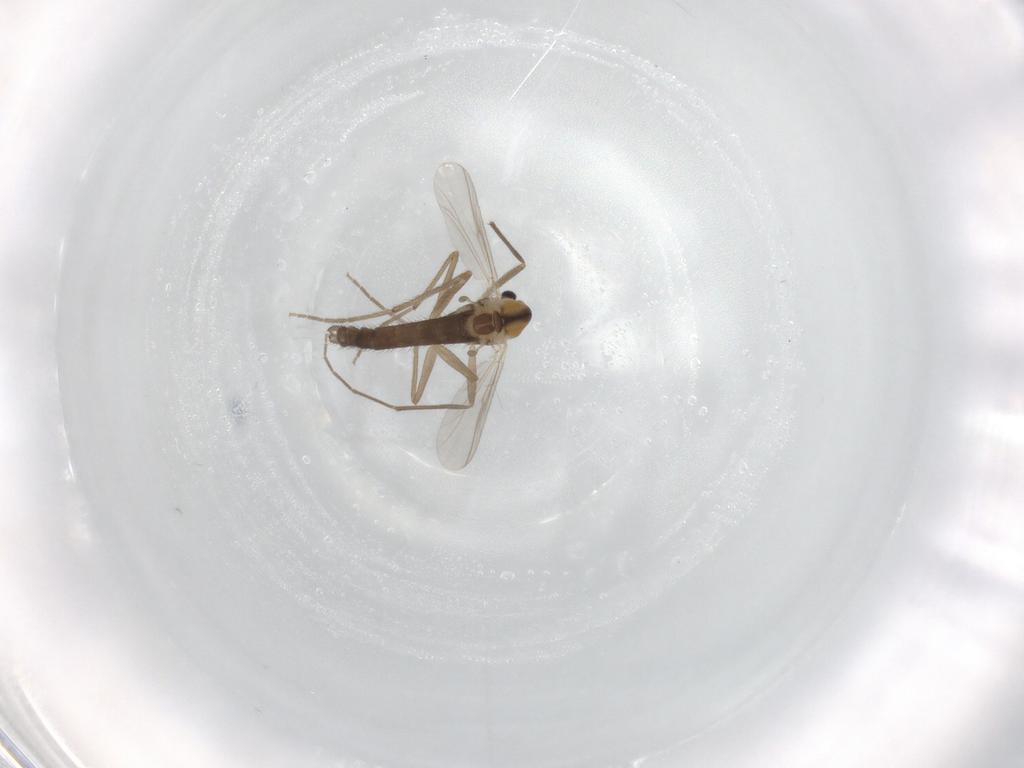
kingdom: Animalia
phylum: Arthropoda
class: Insecta
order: Diptera
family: Chironomidae
